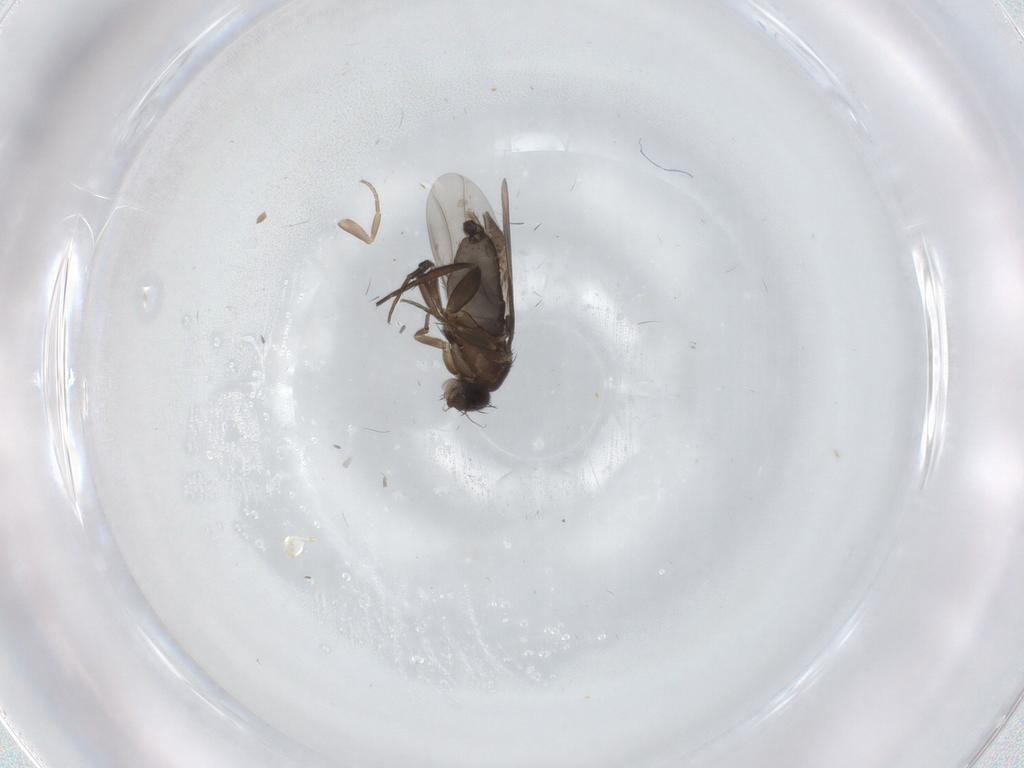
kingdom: Animalia
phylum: Arthropoda
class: Insecta
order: Diptera
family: Phoridae
